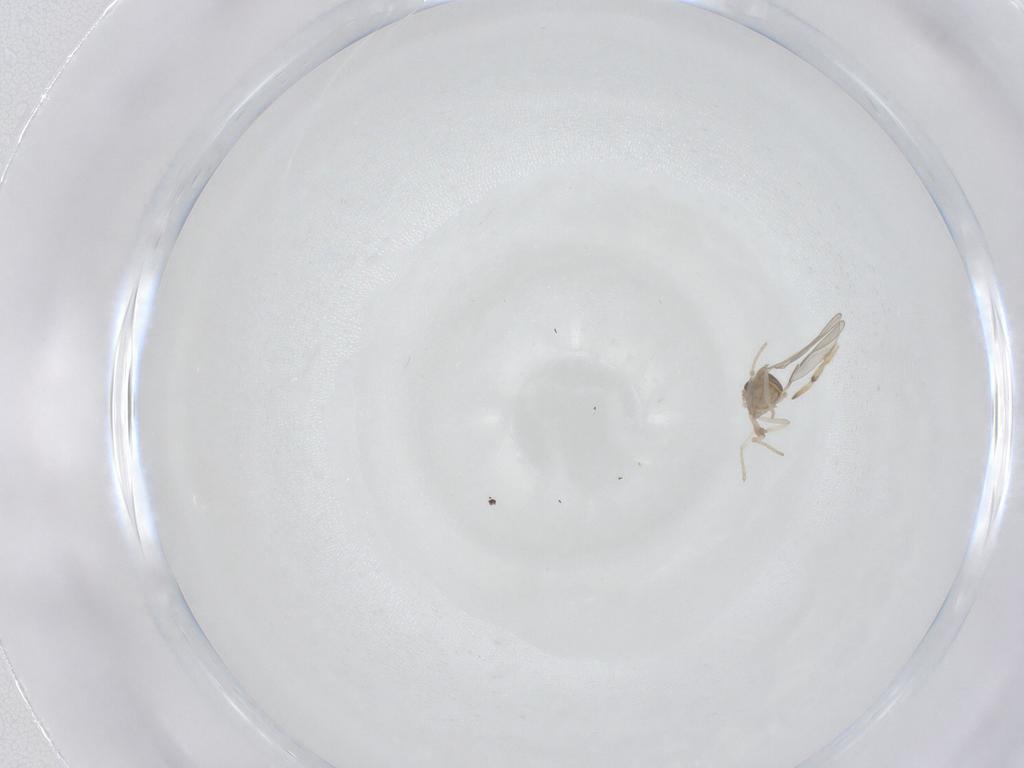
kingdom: Animalia
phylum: Arthropoda
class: Insecta
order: Diptera
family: Cecidomyiidae
